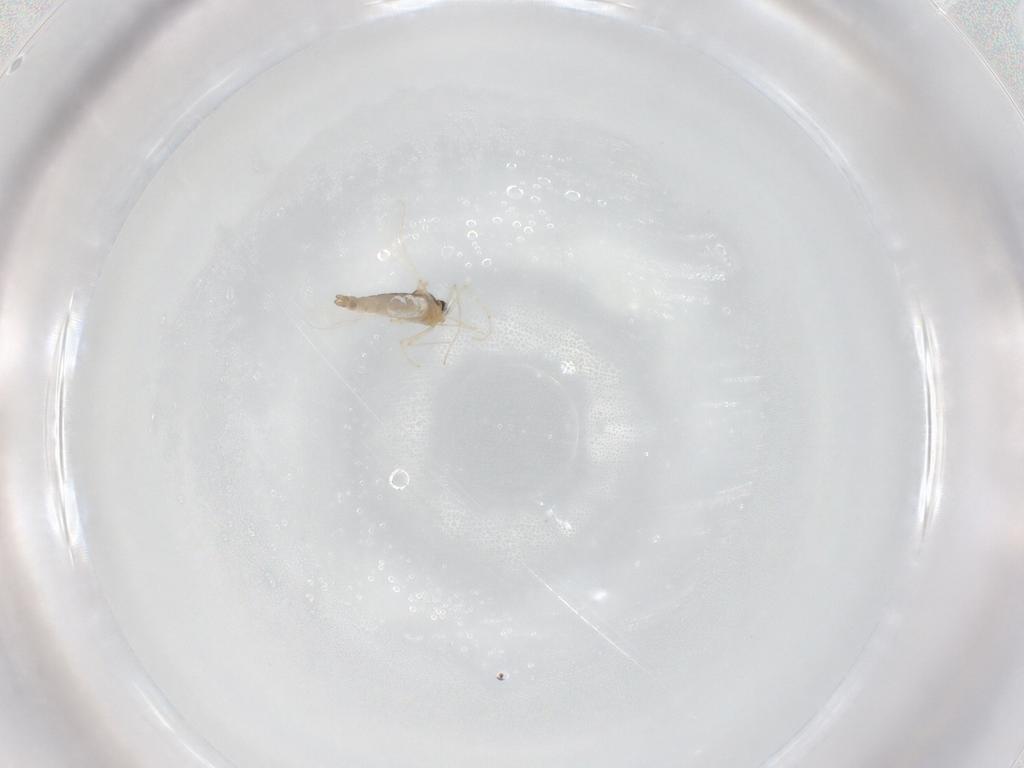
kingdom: Animalia
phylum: Arthropoda
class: Insecta
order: Diptera
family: Chironomidae
